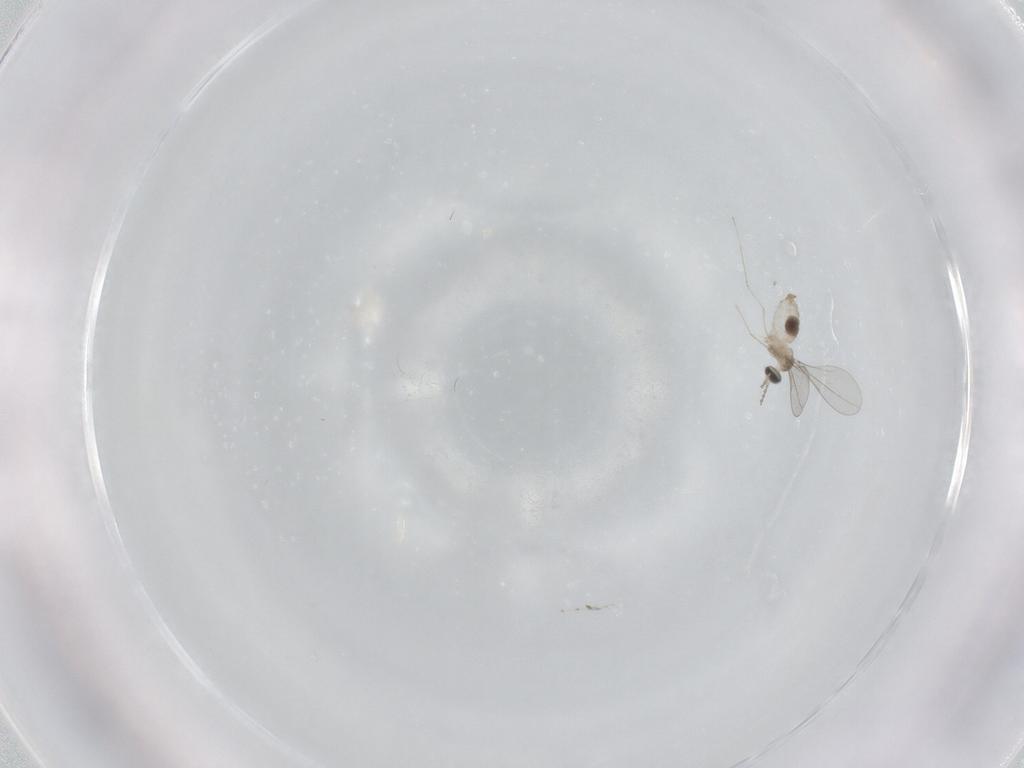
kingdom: Animalia
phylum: Arthropoda
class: Insecta
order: Diptera
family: Cecidomyiidae
